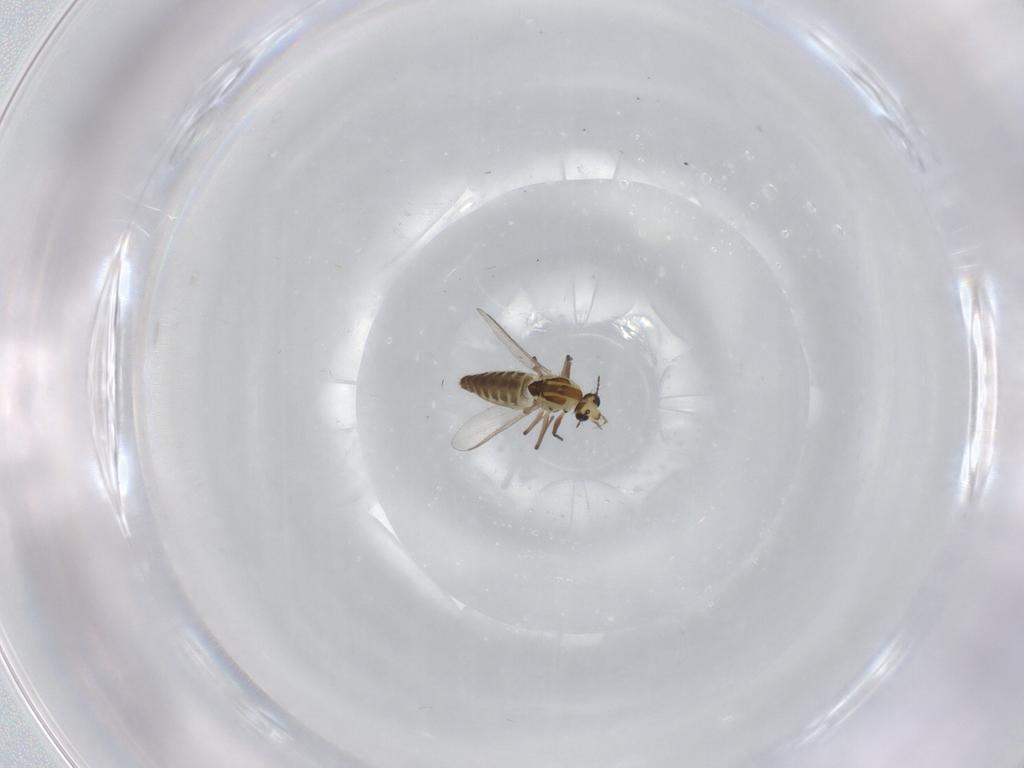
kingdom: Animalia
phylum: Arthropoda
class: Insecta
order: Diptera
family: Chironomidae
